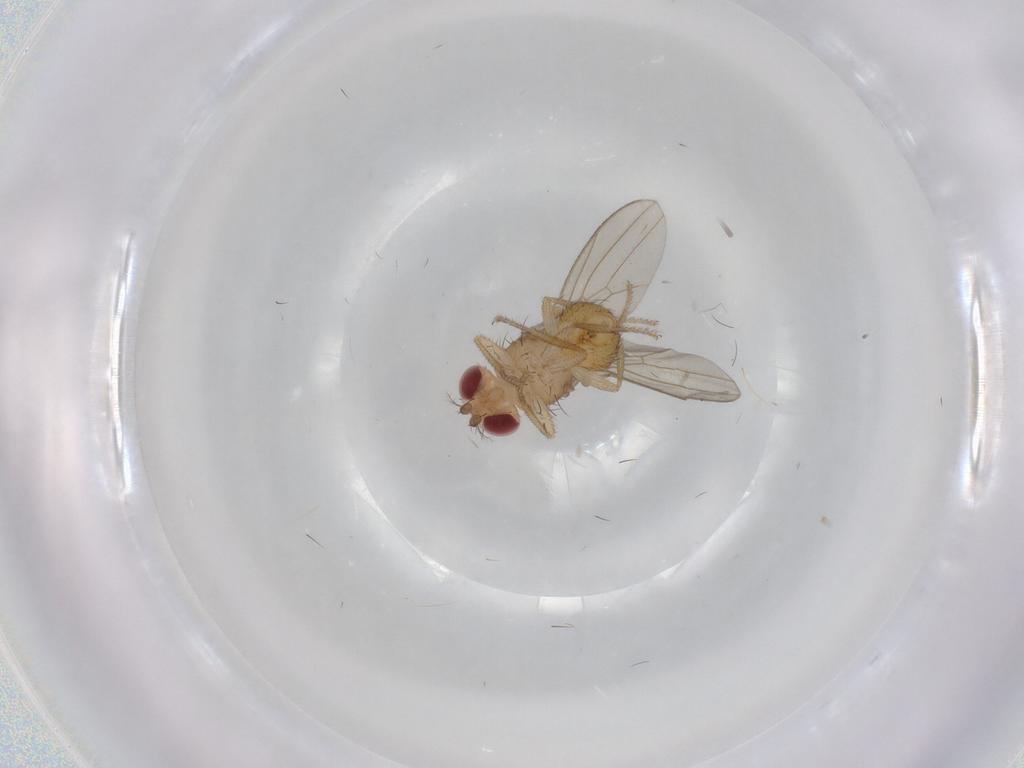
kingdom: Animalia
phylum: Arthropoda
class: Insecta
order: Diptera
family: Drosophilidae
